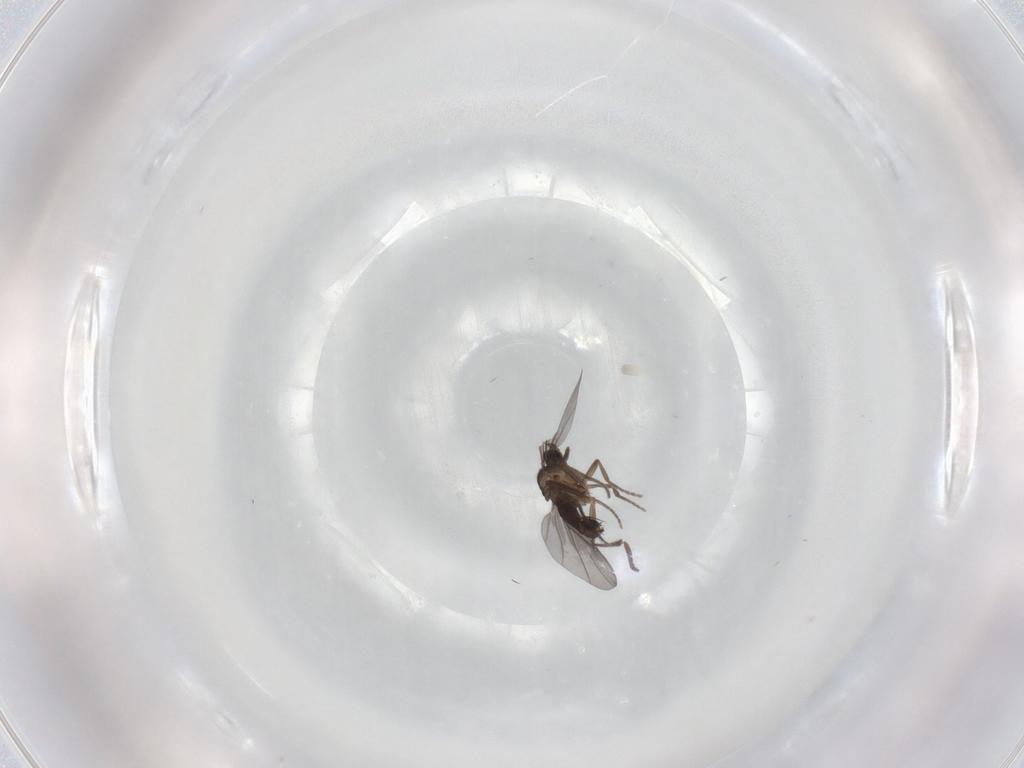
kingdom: Animalia
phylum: Arthropoda
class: Insecta
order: Diptera
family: Phoridae
